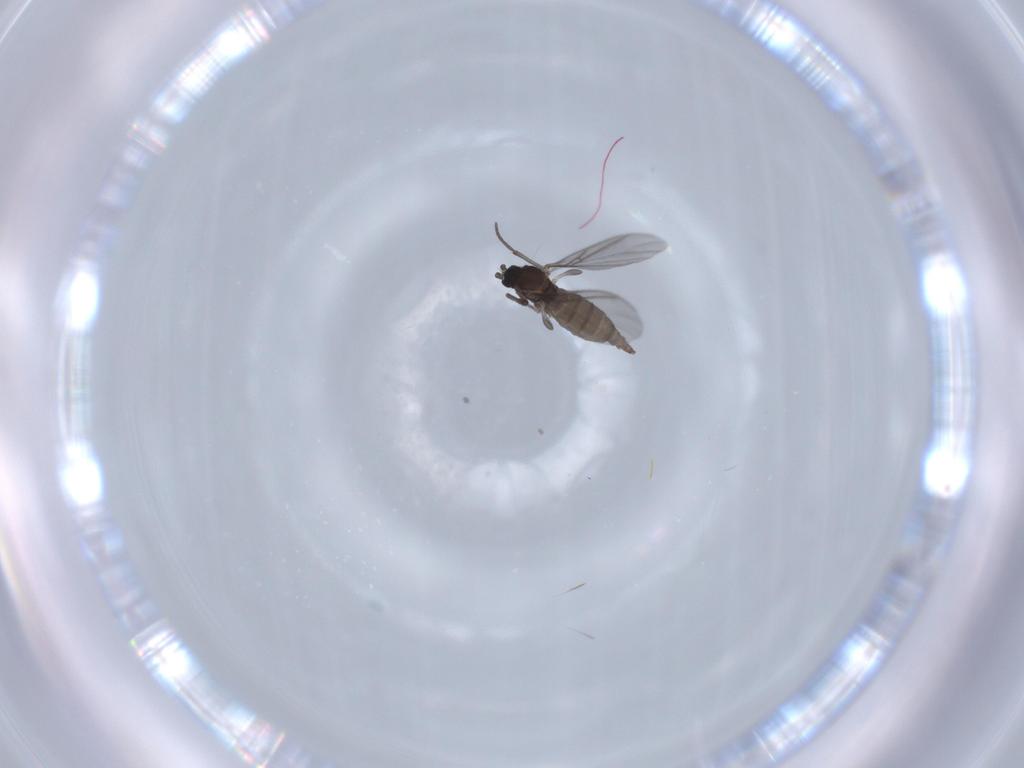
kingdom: Animalia
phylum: Arthropoda
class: Insecta
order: Diptera
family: Sciaridae
